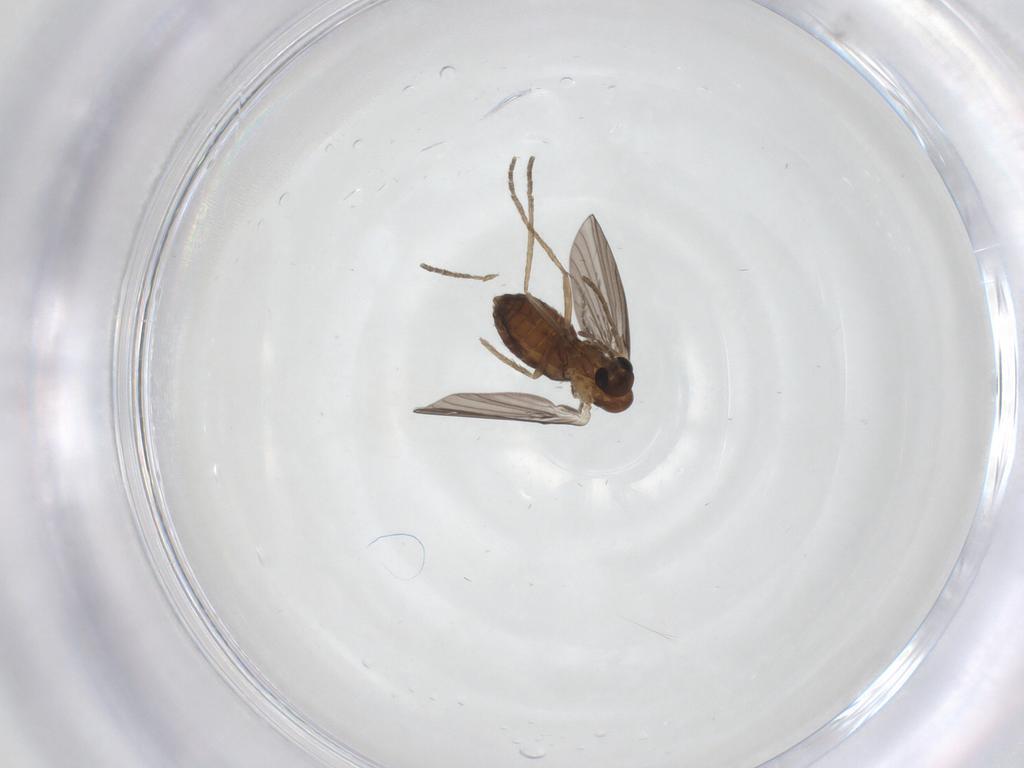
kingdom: Animalia
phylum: Arthropoda
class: Insecta
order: Diptera
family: Psychodidae
